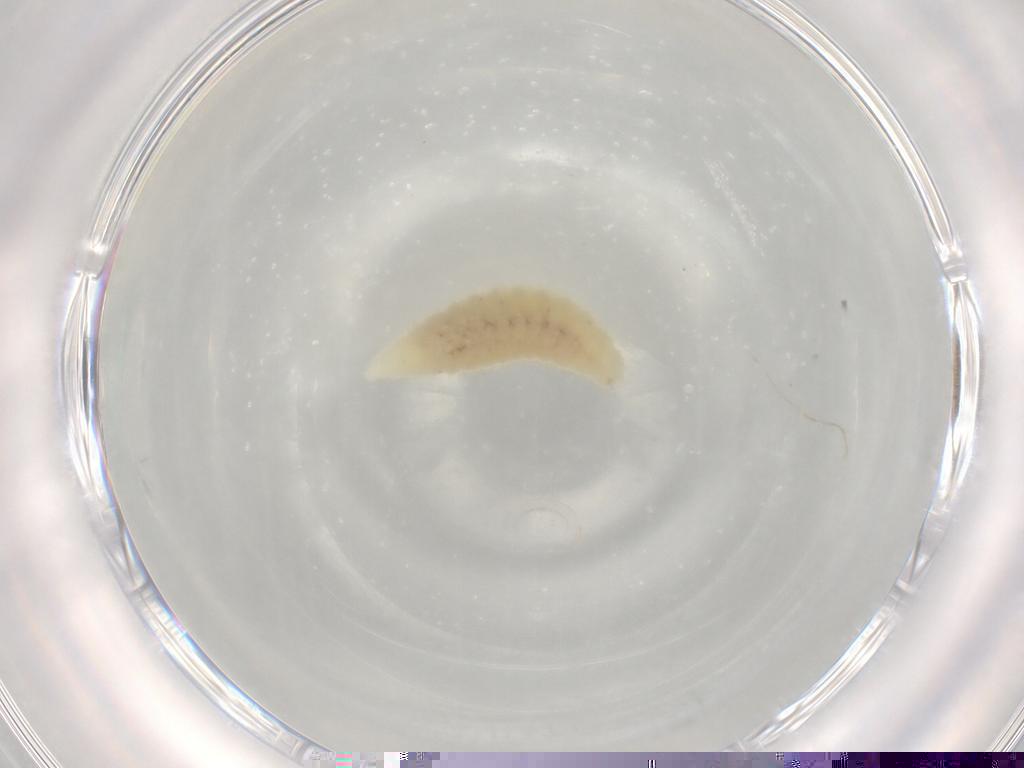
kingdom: Animalia
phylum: Arthropoda
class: Insecta
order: Hymenoptera
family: Torymidae
